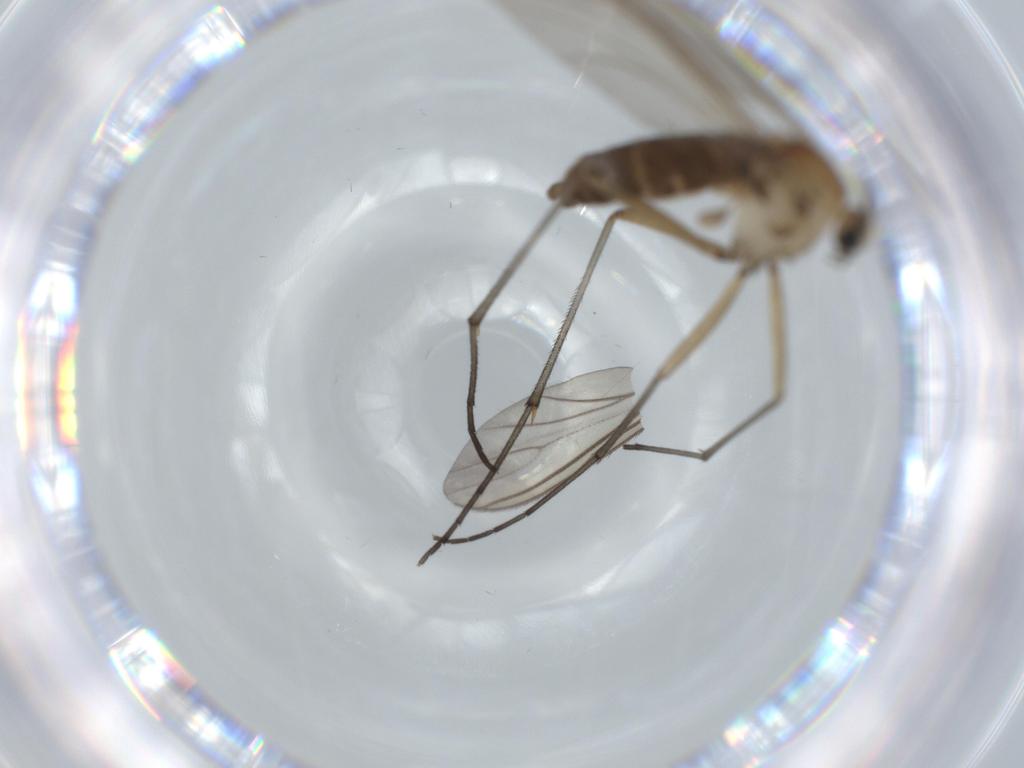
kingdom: Animalia
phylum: Arthropoda
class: Insecta
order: Diptera
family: Sciaridae
